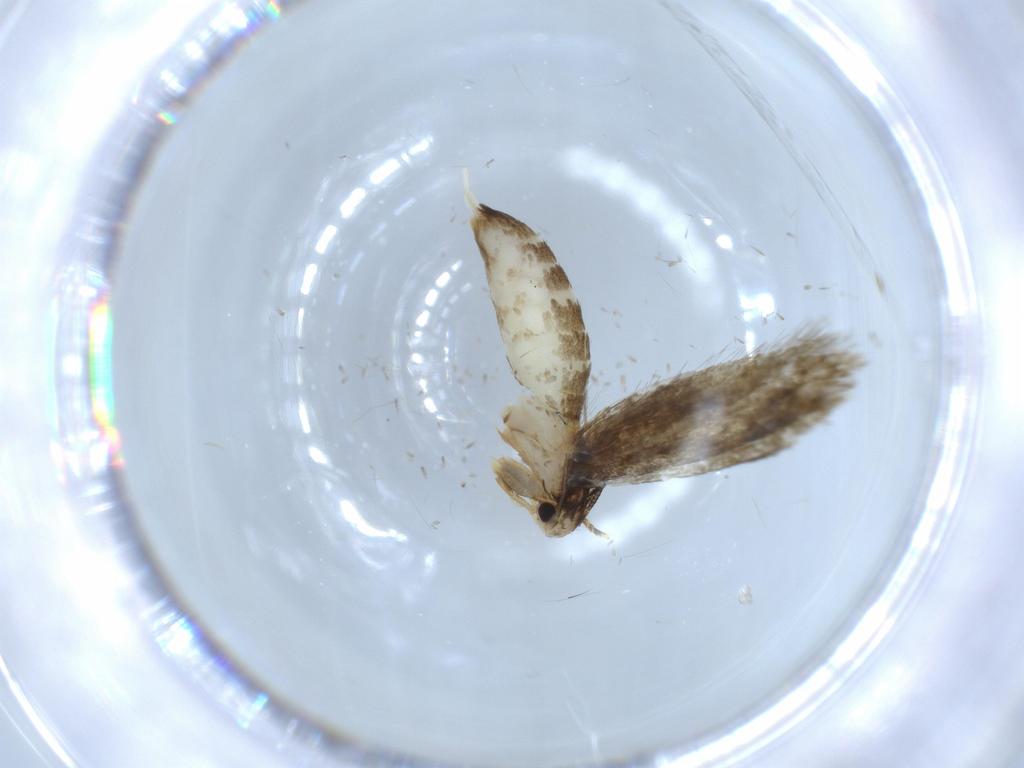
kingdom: Animalia
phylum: Arthropoda
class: Insecta
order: Lepidoptera
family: Tineidae
